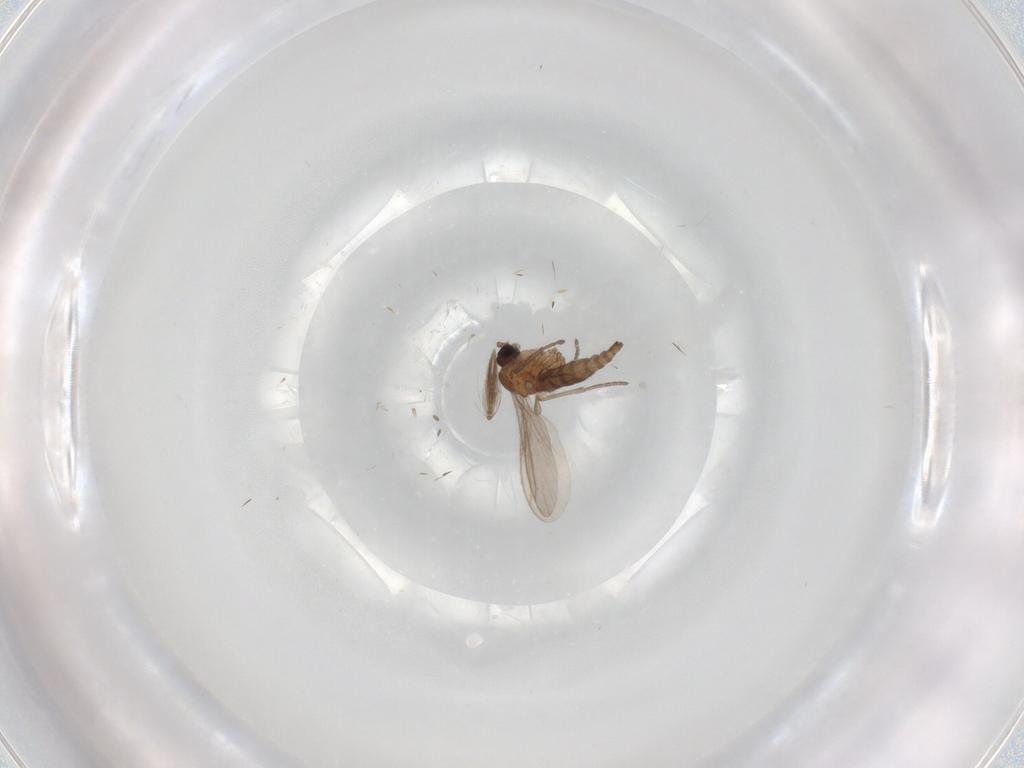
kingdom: Animalia
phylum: Arthropoda
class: Insecta
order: Diptera
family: Ceratopogonidae
